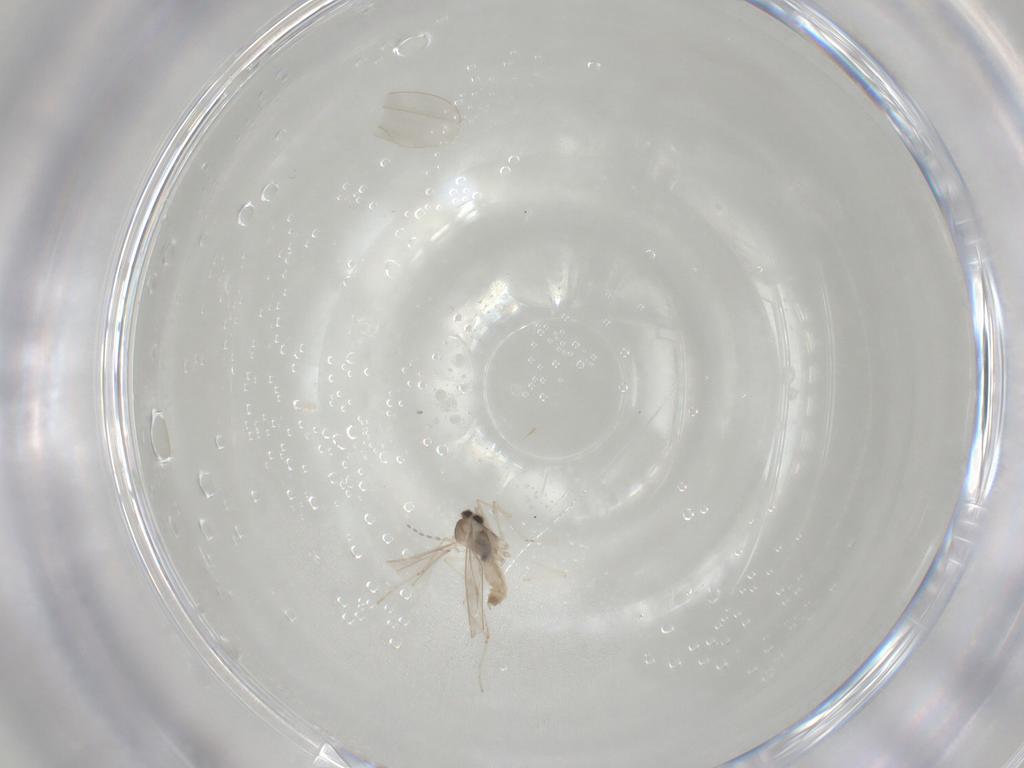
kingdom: Animalia
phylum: Arthropoda
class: Insecta
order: Diptera
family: Cecidomyiidae
